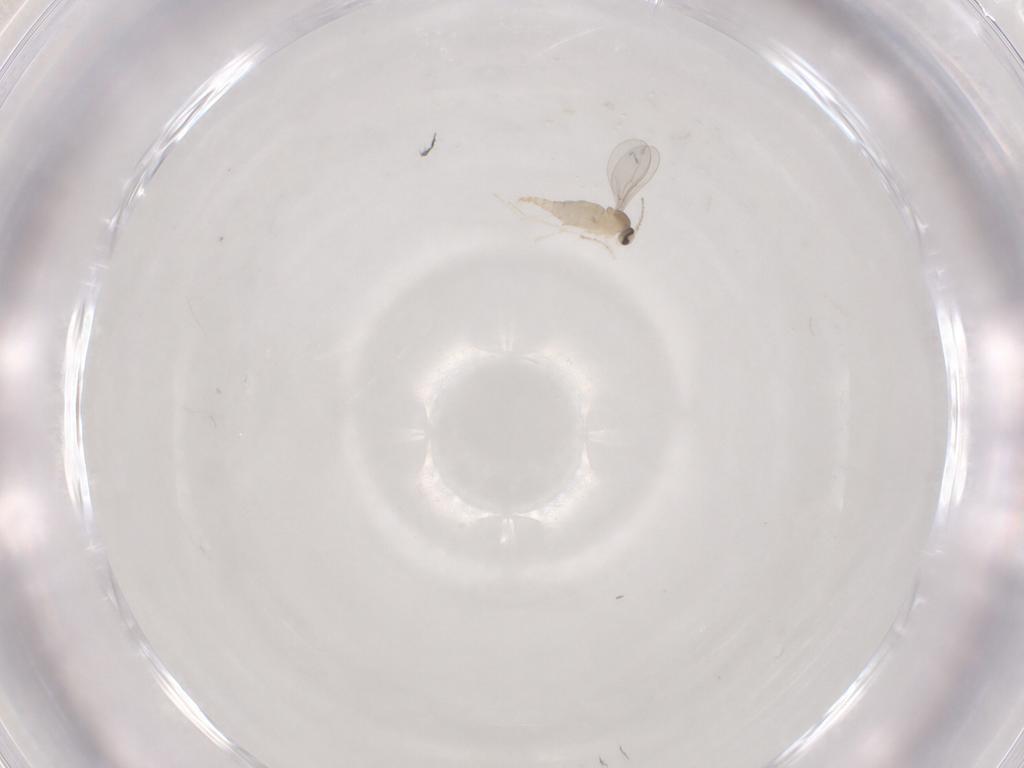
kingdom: Animalia
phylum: Arthropoda
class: Insecta
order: Diptera
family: Cecidomyiidae
